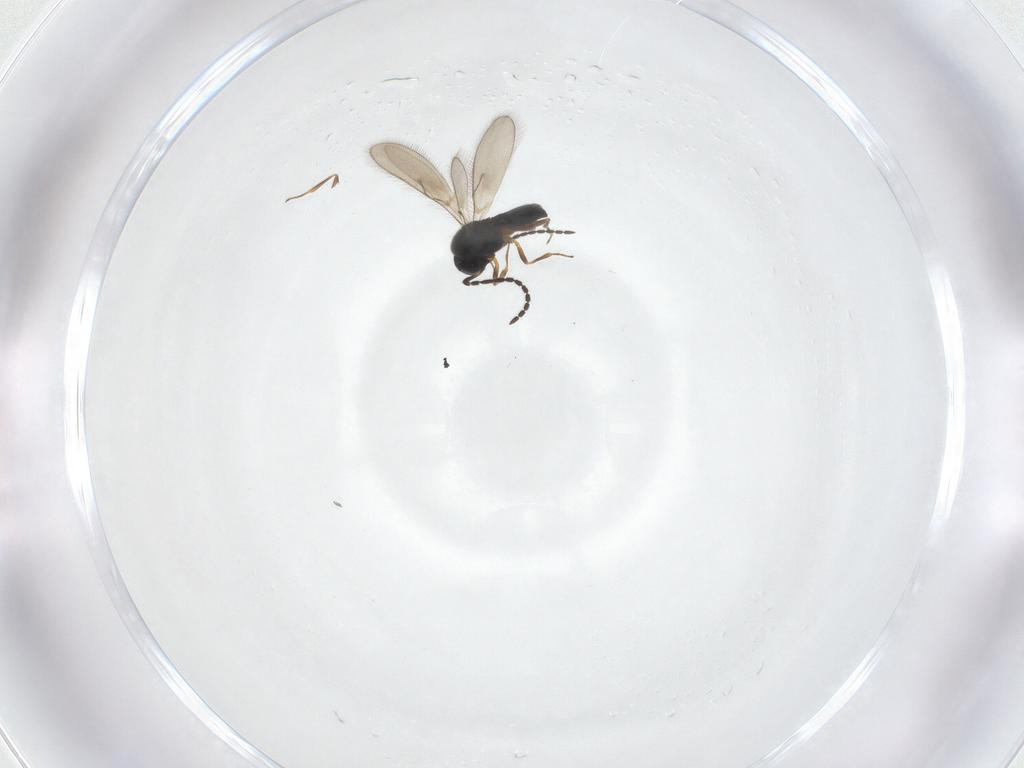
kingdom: Animalia
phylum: Arthropoda
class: Insecta
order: Hymenoptera
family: Scelionidae
